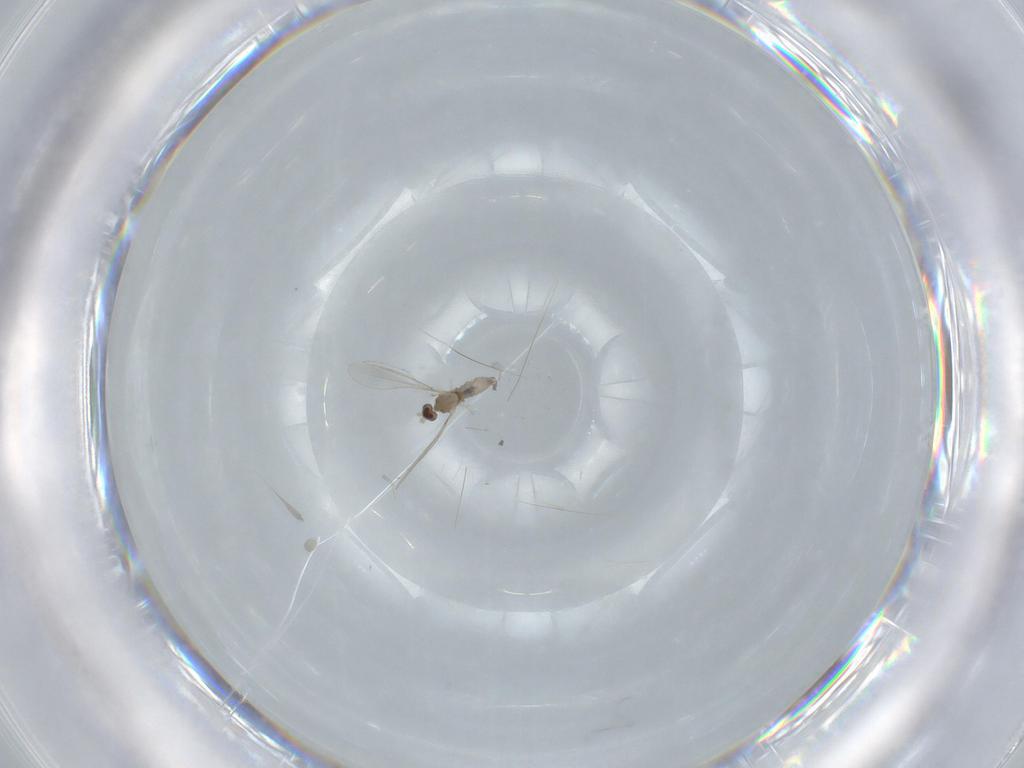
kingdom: Animalia
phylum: Arthropoda
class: Insecta
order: Diptera
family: Cecidomyiidae
